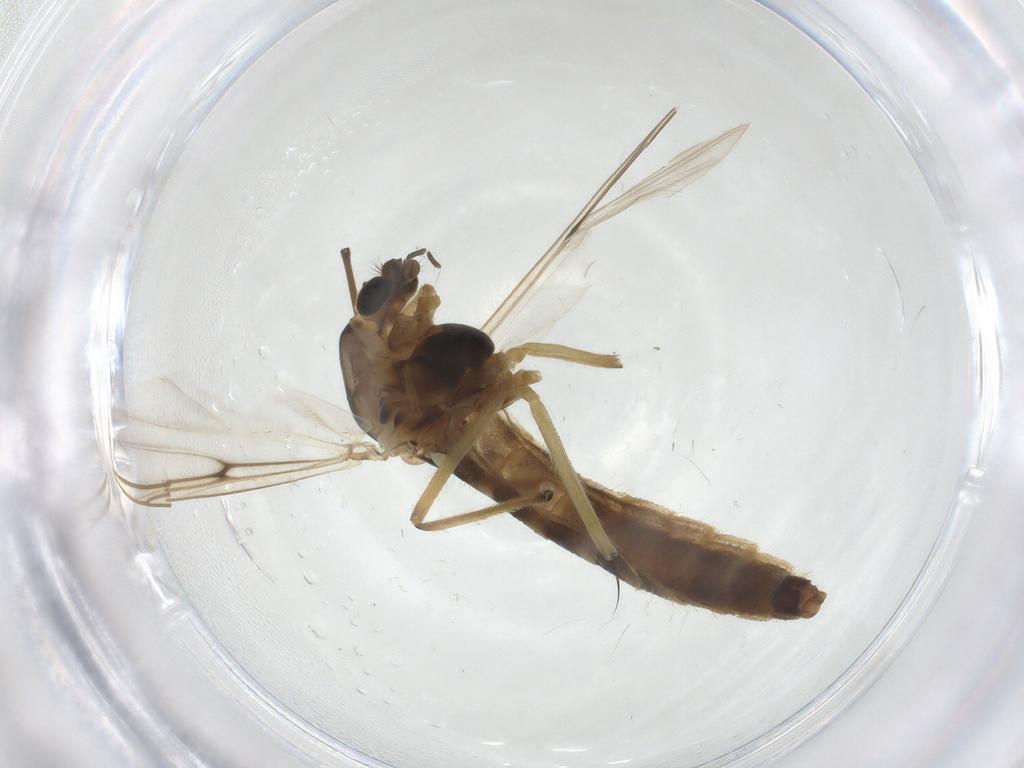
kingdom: Animalia
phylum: Arthropoda
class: Insecta
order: Diptera
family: Chironomidae
